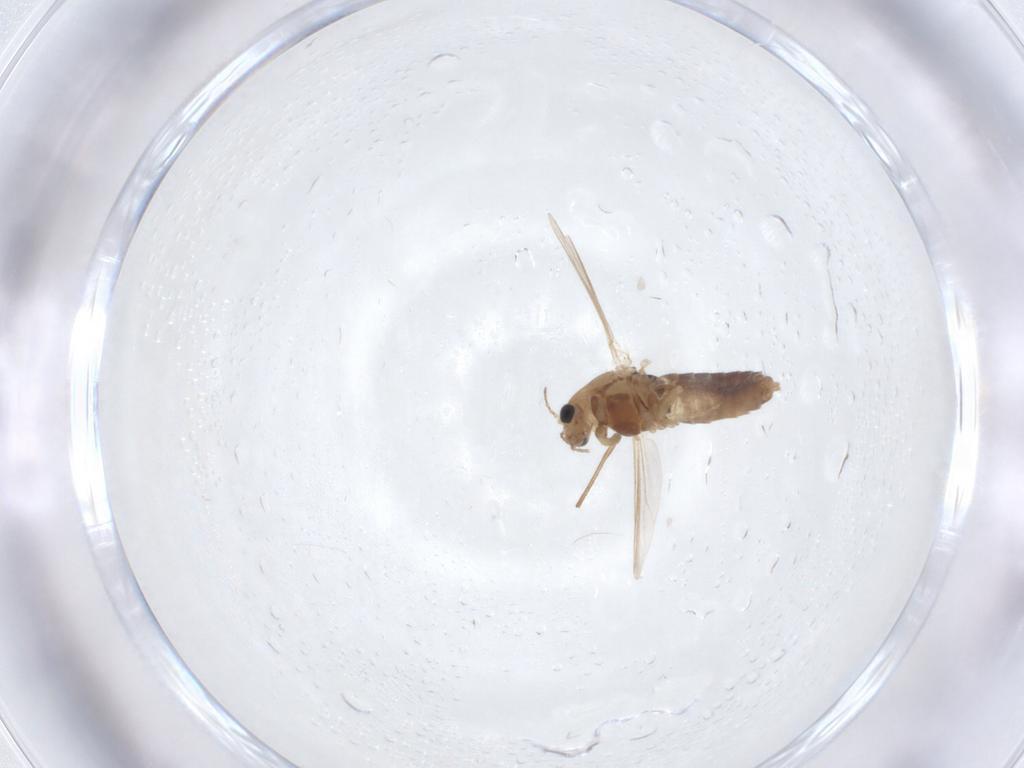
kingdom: Animalia
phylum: Arthropoda
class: Insecta
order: Diptera
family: Chironomidae
